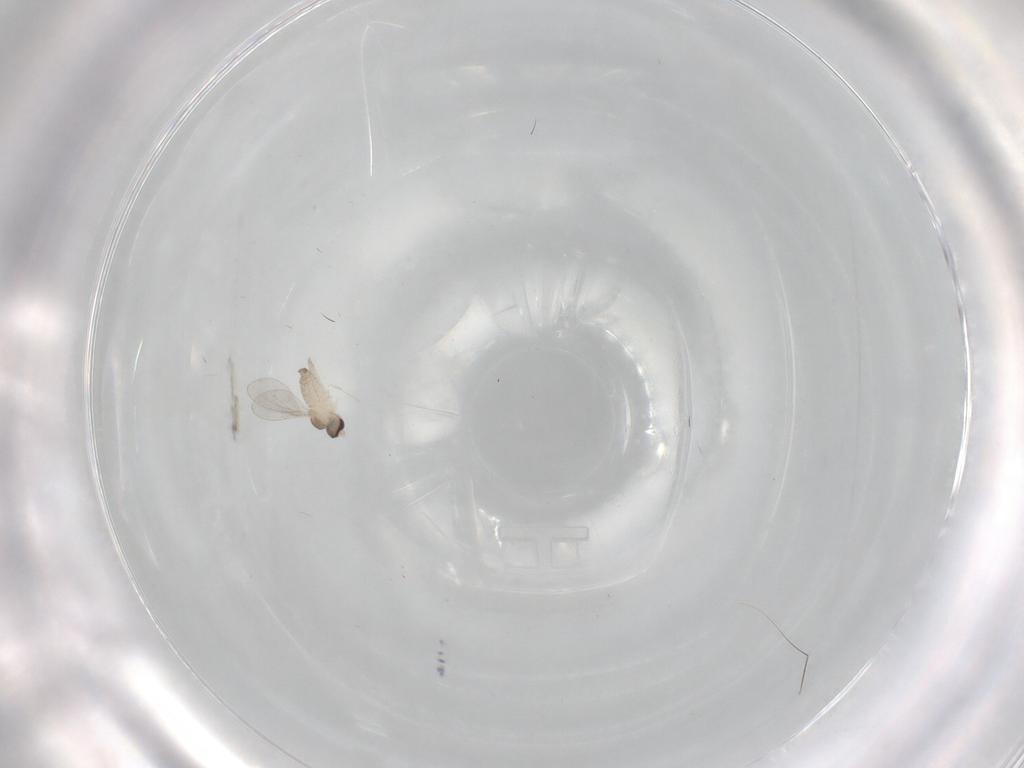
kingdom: Animalia
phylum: Arthropoda
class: Insecta
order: Diptera
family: Cecidomyiidae
